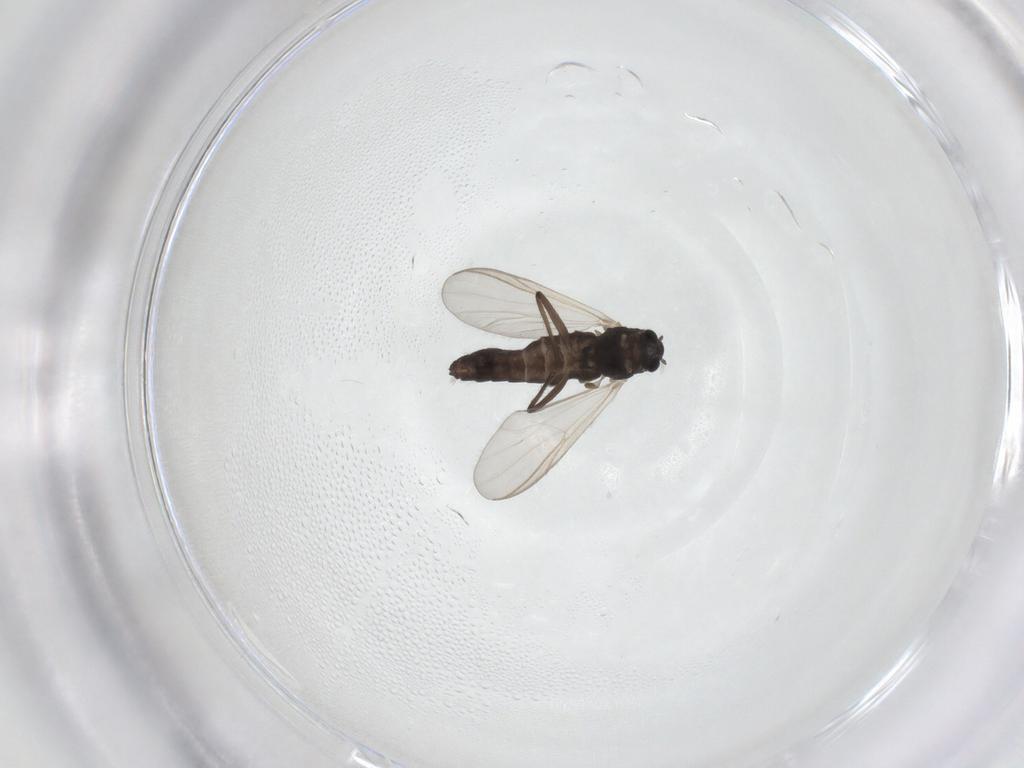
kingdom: Animalia
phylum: Arthropoda
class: Insecta
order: Diptera
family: Chironomidae
